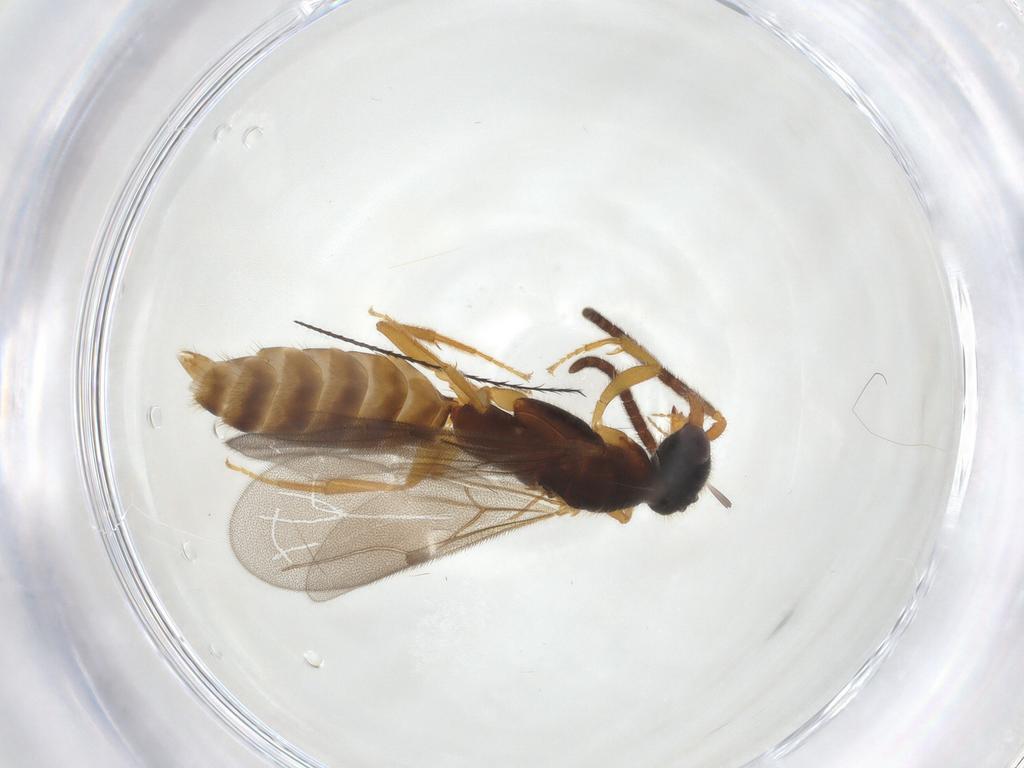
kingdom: Animalia
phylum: Arthropoda
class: Insecta
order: Hymenoptera
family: Bethylidae
